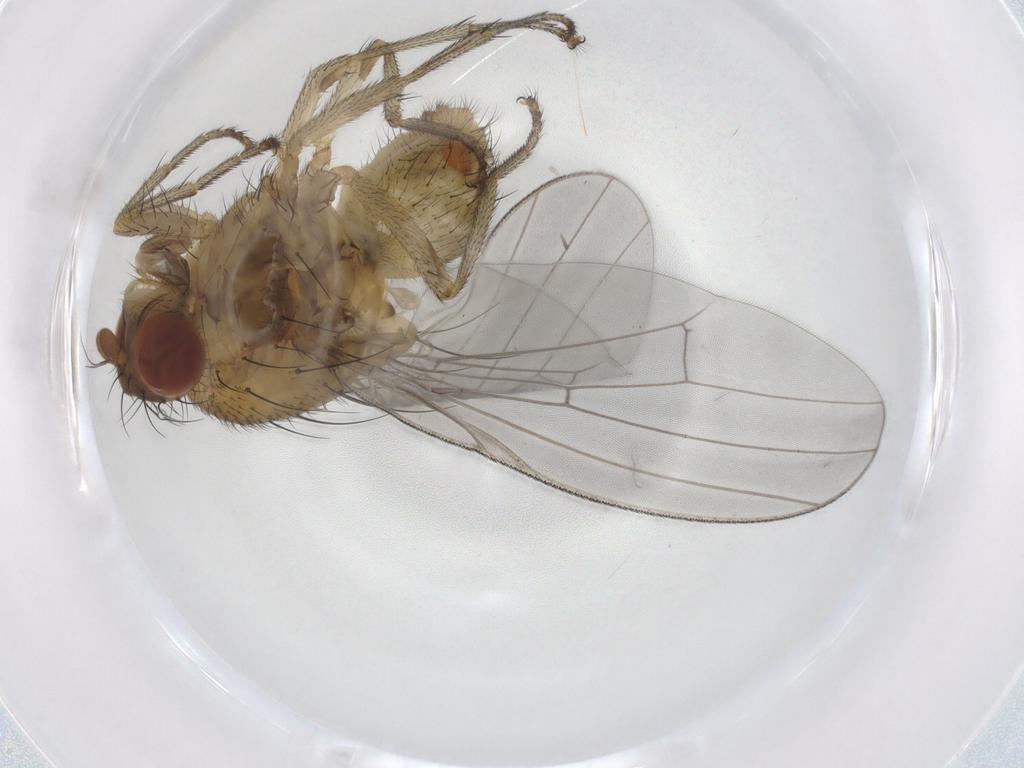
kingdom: Animalia
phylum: Arthropoda
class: Insecta
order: Diptera
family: Lauxaniidae
